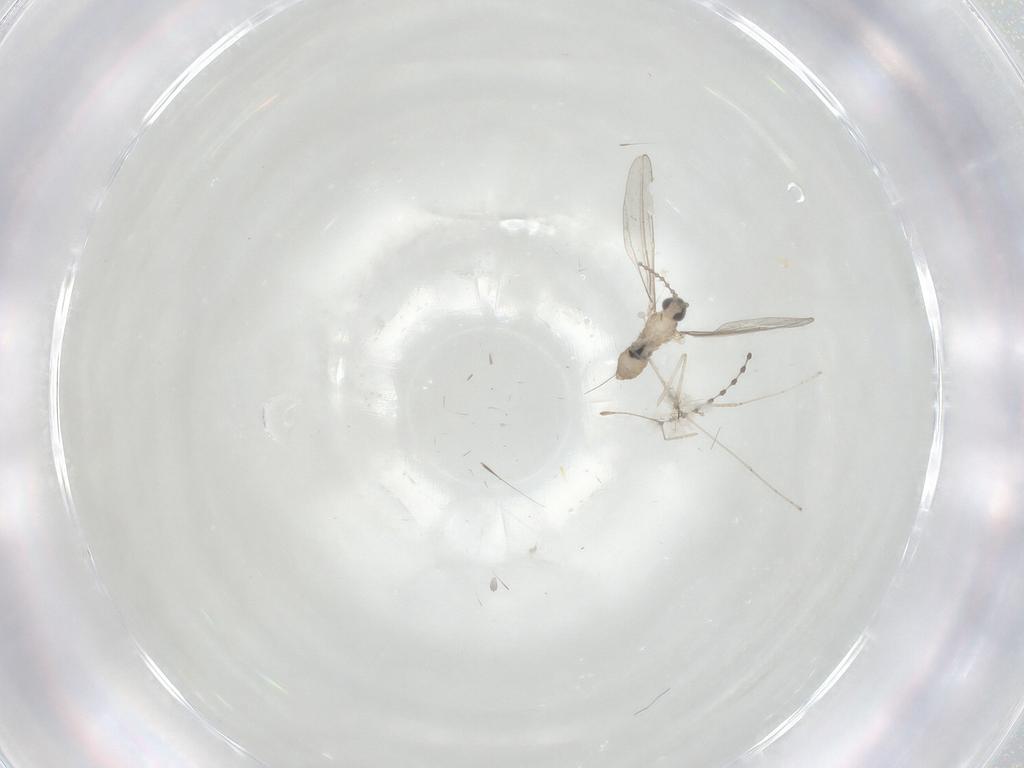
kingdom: Animalia
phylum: Arthropoda
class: Insecta
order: Diptera
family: Cecidomyiidae
